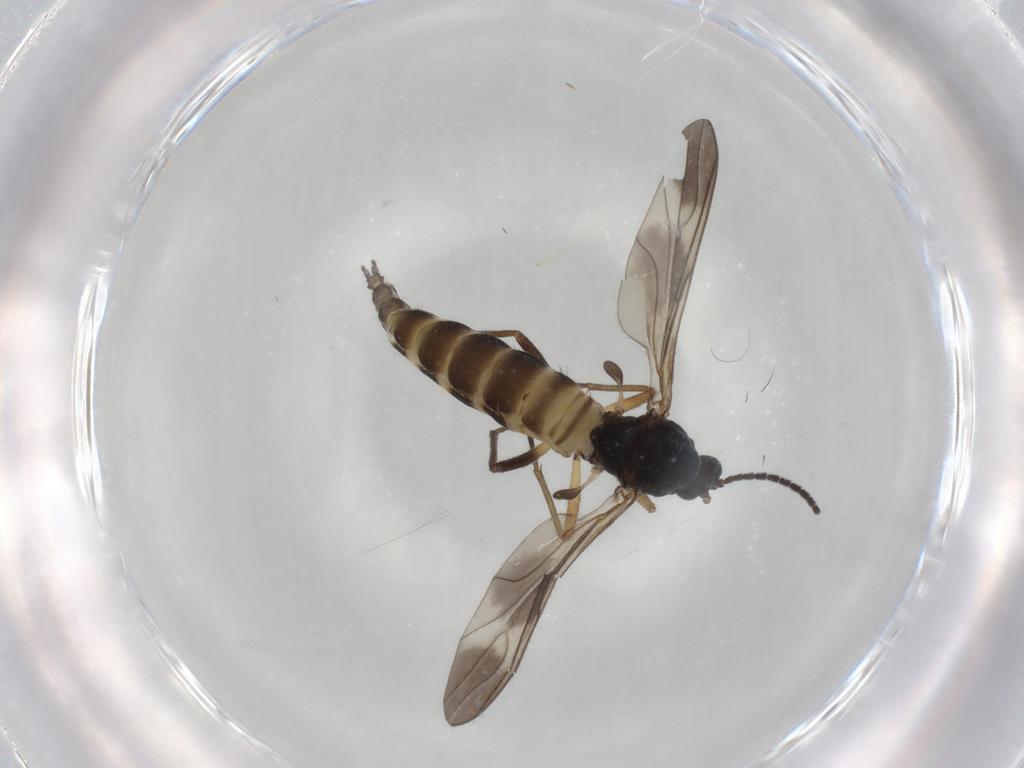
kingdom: Animalia
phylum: Arthropoda
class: Insecta
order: Diptera
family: Sciaridae
